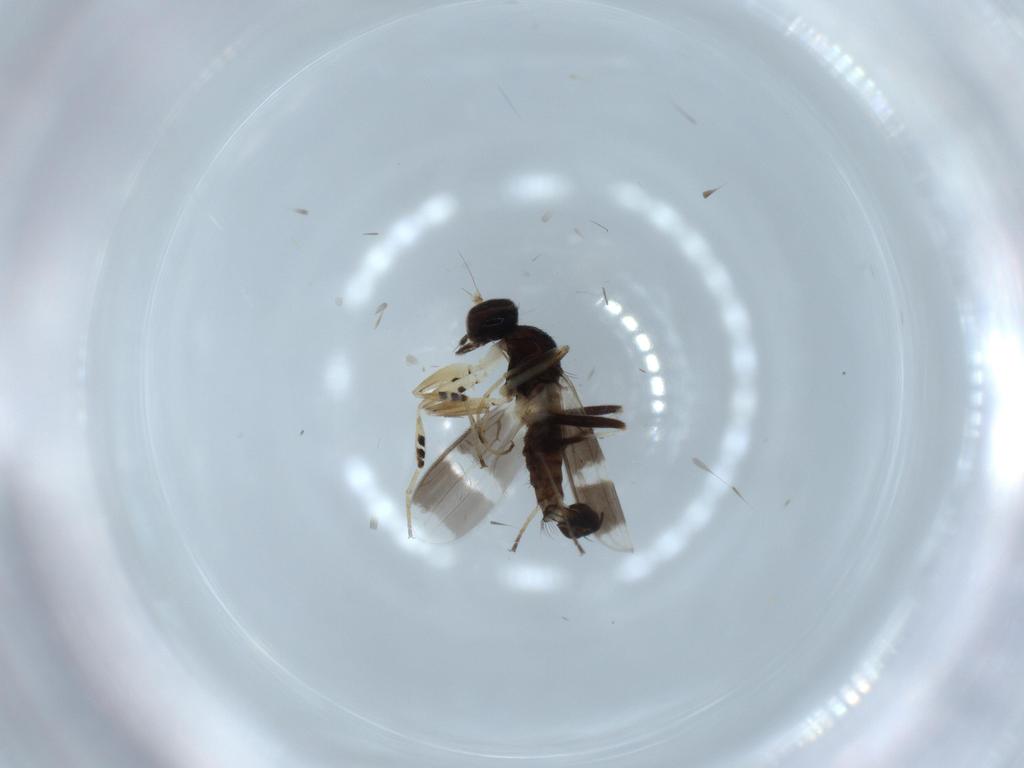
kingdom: Animalia
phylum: Arthropoda
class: Insecta
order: Diptera
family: Hybotidae
